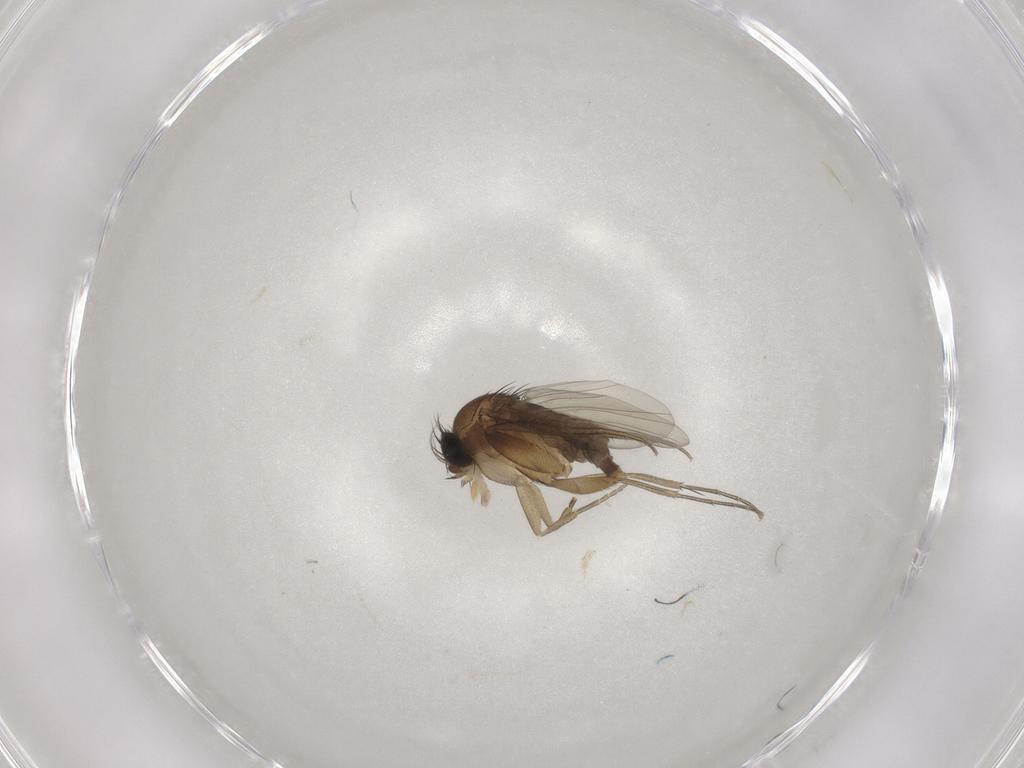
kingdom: Animalia
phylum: Arthropoda
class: Insecta
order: Diptera
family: Phoridae
